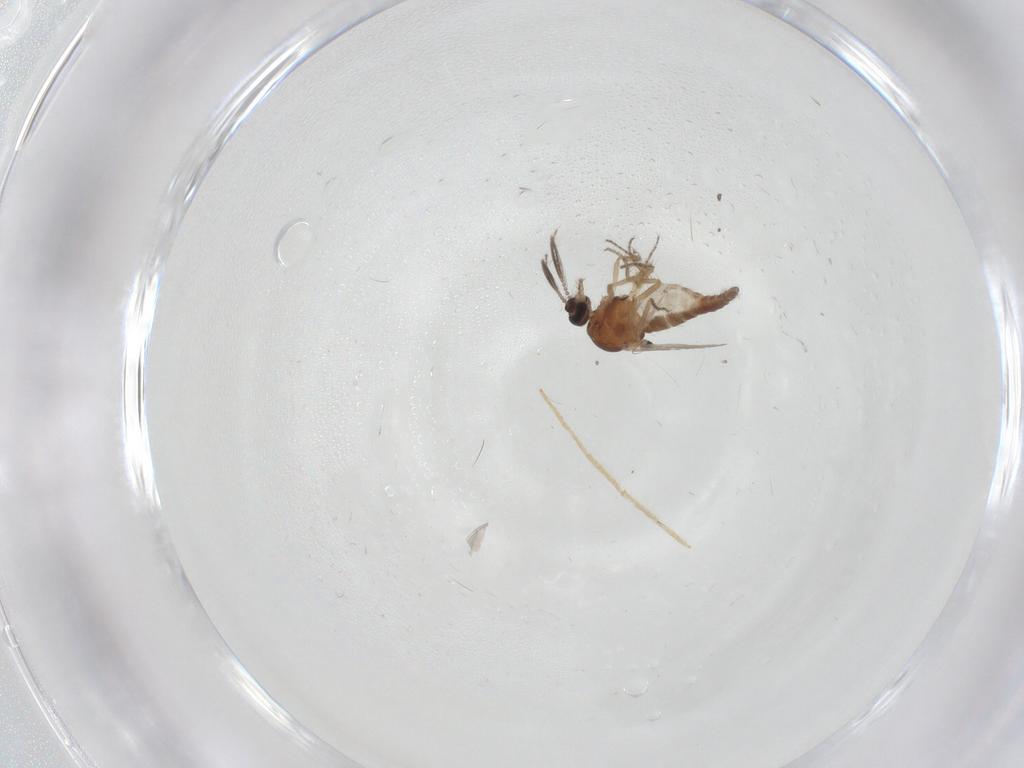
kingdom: Animalia
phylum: Arthropoda
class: Insecta
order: Diptera
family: Ceratopogonidae
